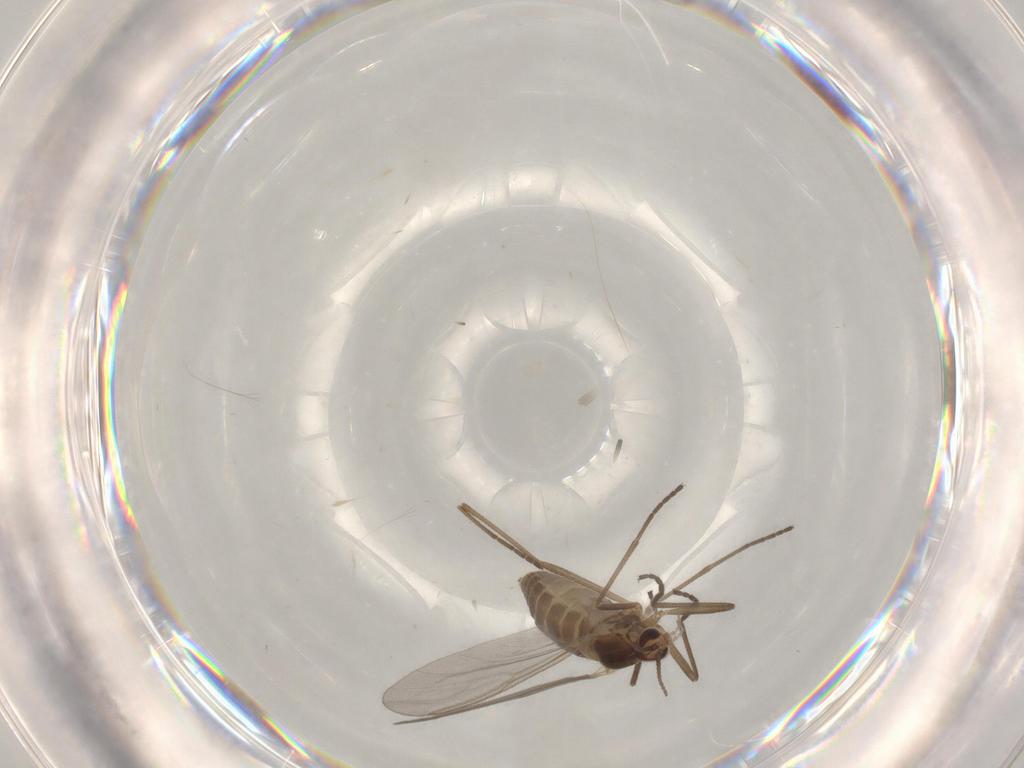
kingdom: Animalia
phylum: Arthropoda
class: Insecta
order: Diptera
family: Cecidomyiidae
